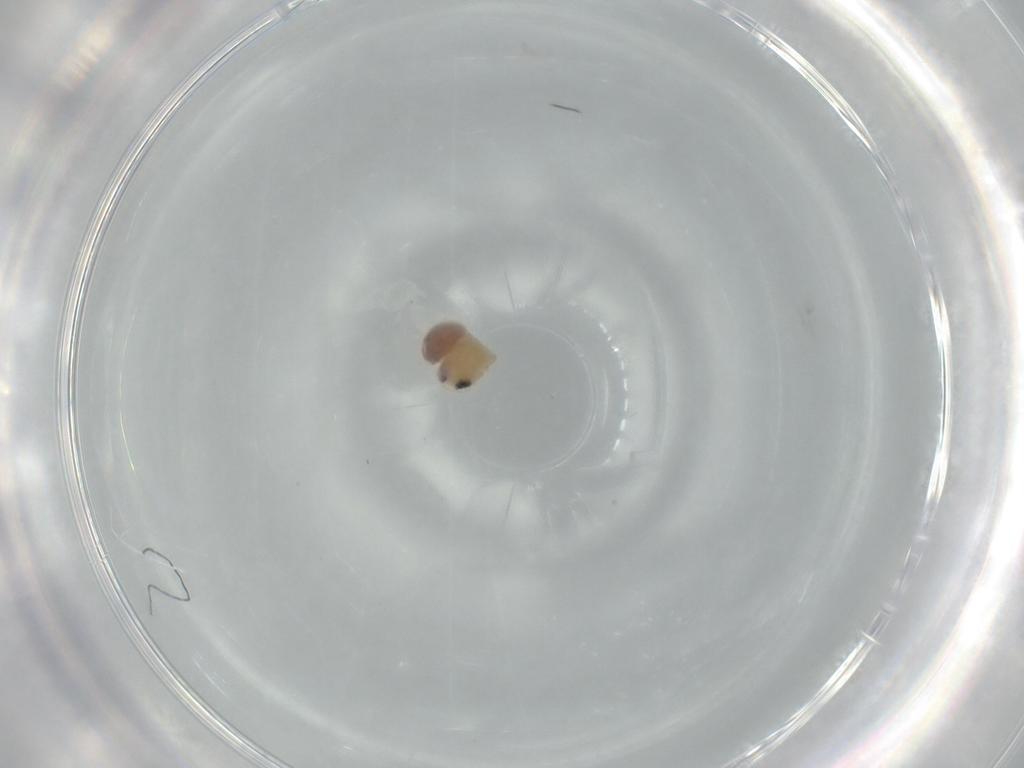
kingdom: Animalia
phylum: Arthropoda
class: Arachnida
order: Araneae
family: Pholcidae
